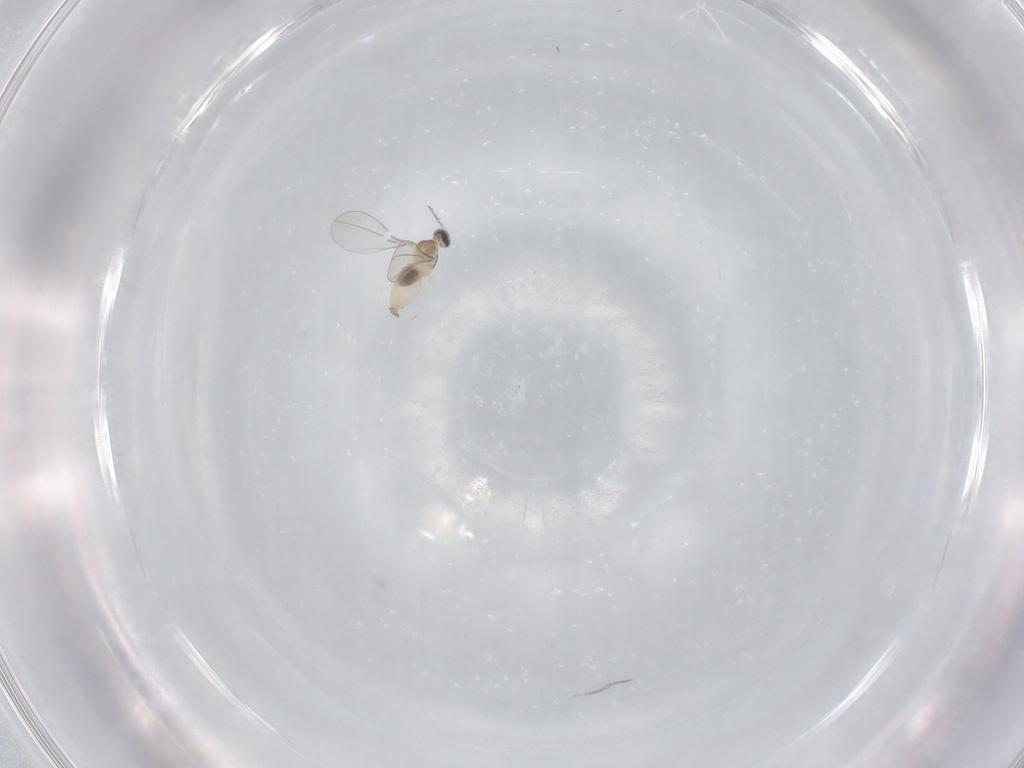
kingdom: Animalia
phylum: Arthropoda
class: Insecta
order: Diptera
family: Cecidomyiidae
